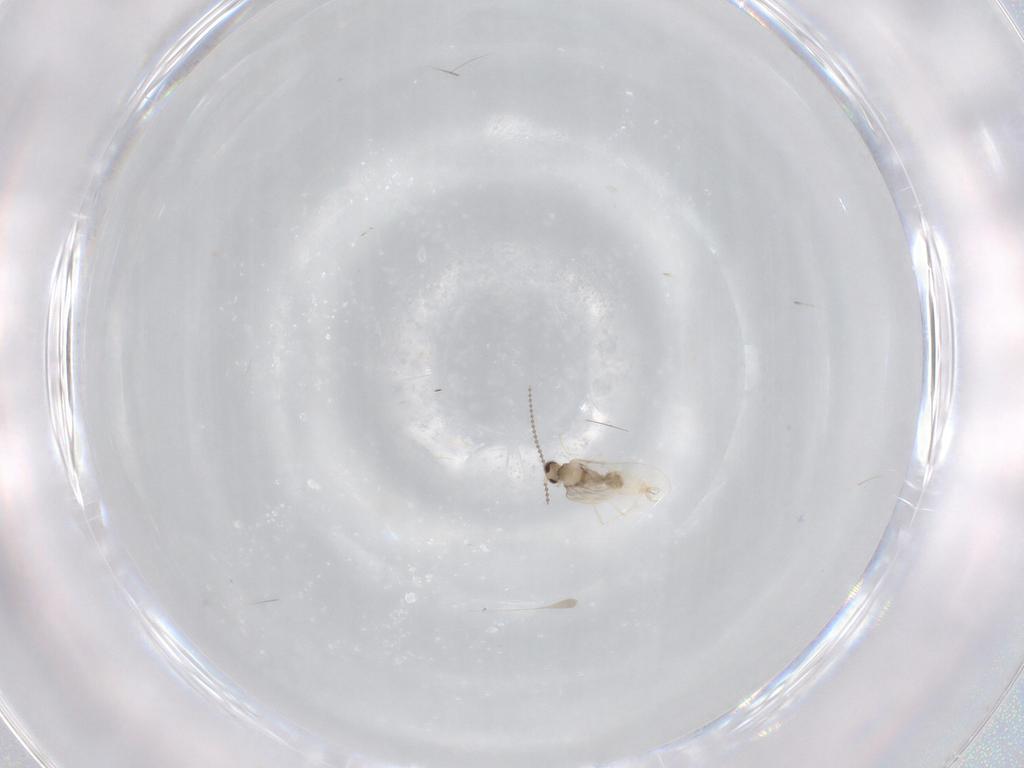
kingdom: Animalia
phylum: Arthropoda
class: Insecta
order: Diptera
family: Cecidomyiidae
